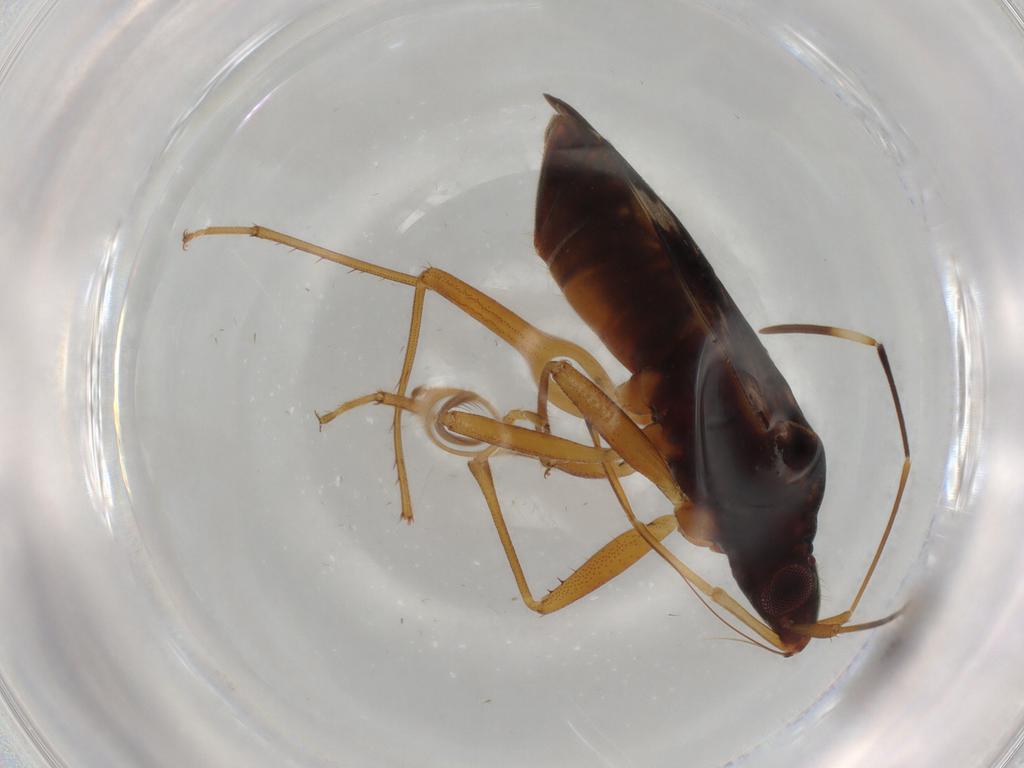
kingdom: Animalia
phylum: Arthropoda
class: Insecta
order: Hemiptera
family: Rhyparochromidae
